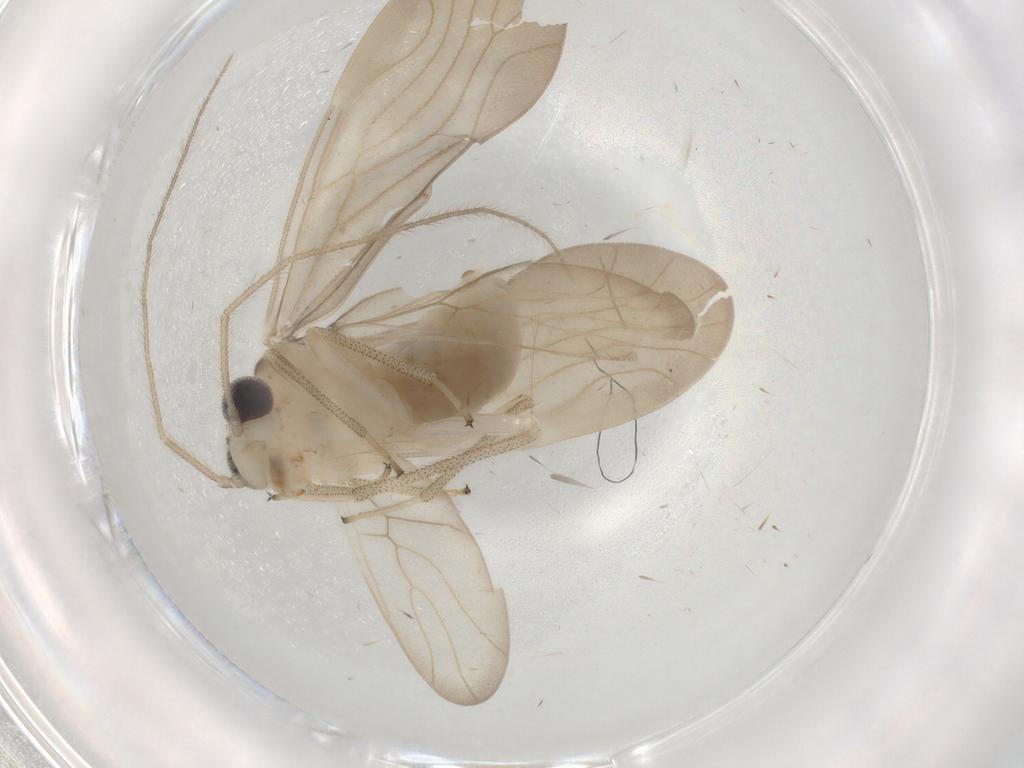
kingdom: Animalia
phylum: Arthropoda
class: Insecta
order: Psocodea
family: Amphipsocidae
